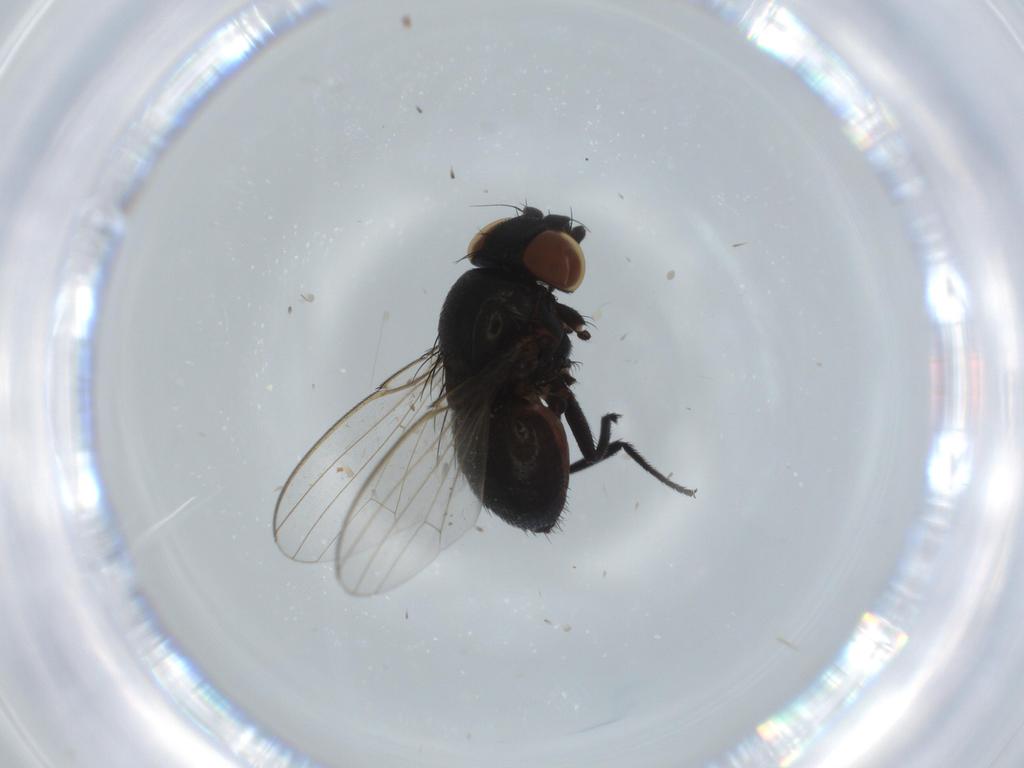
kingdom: Animalia
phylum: Arthropoda
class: Insecta
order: Diptera
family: Milichiidae
